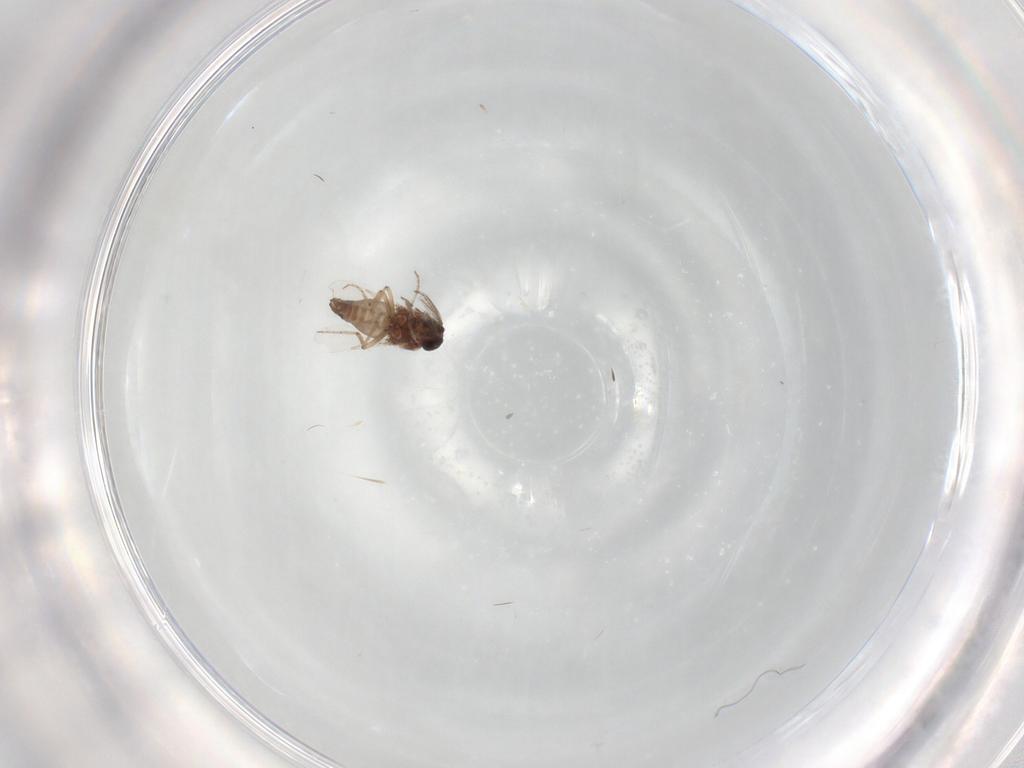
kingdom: Animalia
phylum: Arthropoda
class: Insecta
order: Diptera
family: Ceratopogonidae
